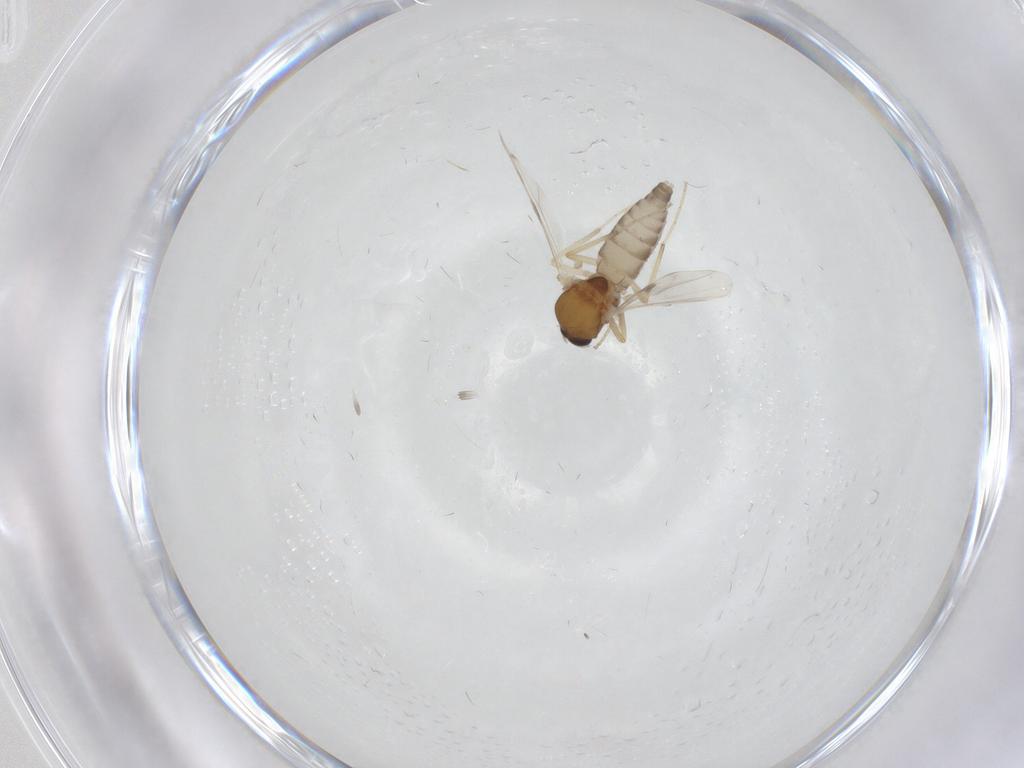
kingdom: Animalia
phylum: Arthropoda
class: Insecta
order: Diptera
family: Ceratopogonidae
